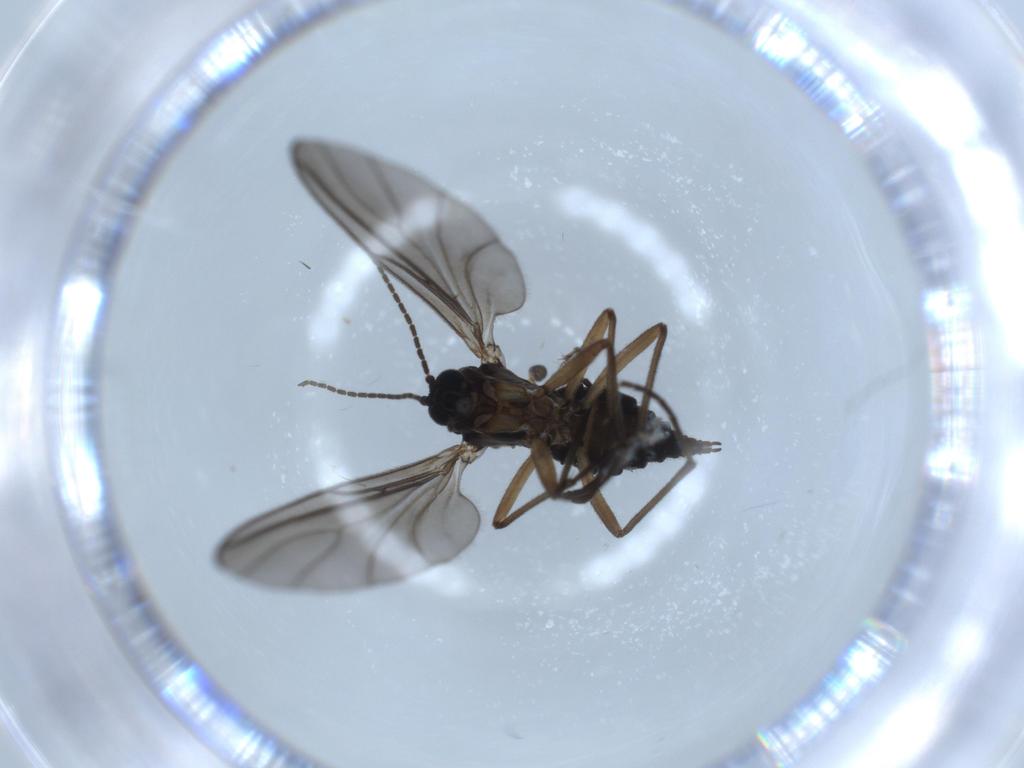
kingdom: Animalia
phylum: Arthropoda
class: Insecta
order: Diptera
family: Sciaridae
